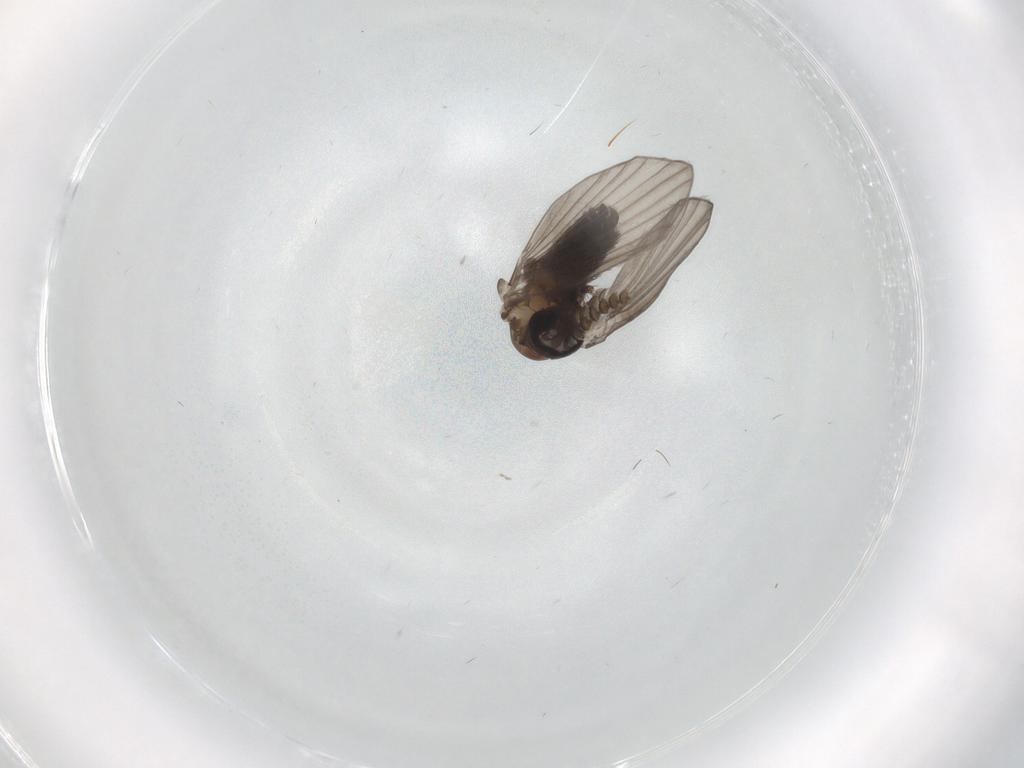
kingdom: Animalia
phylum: Arthropoda
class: Insecta
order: Diptera
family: Psychodidae
